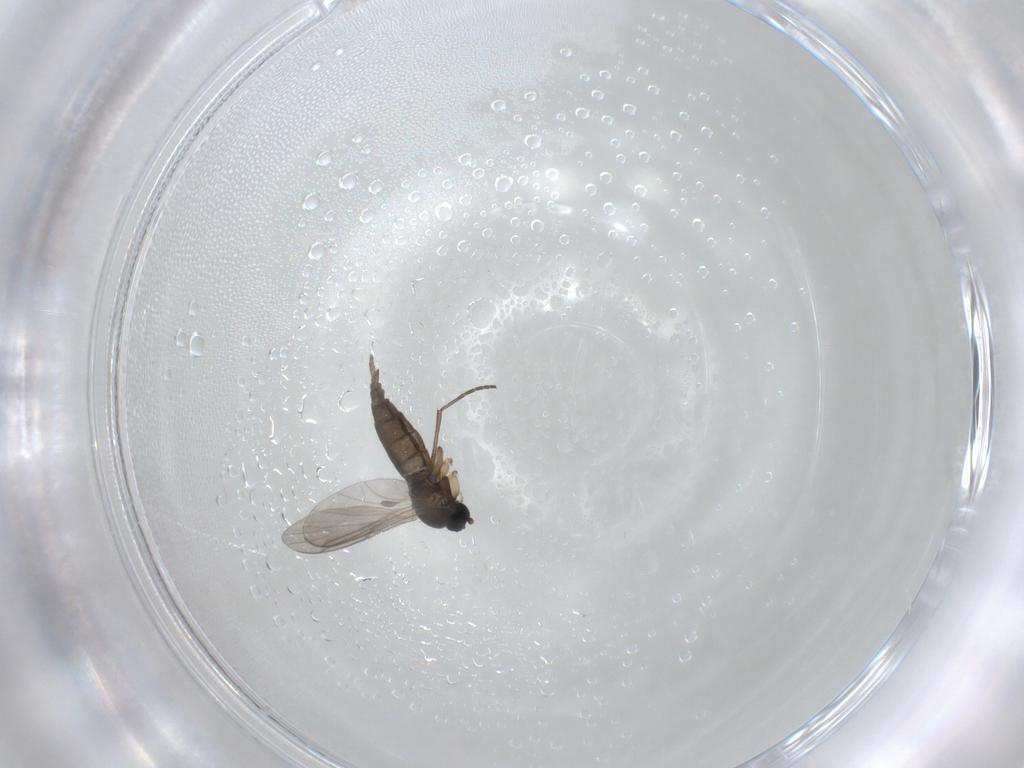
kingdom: Animalia
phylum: Arthropoda
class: Insecta
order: Diptera
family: Sciaridae
